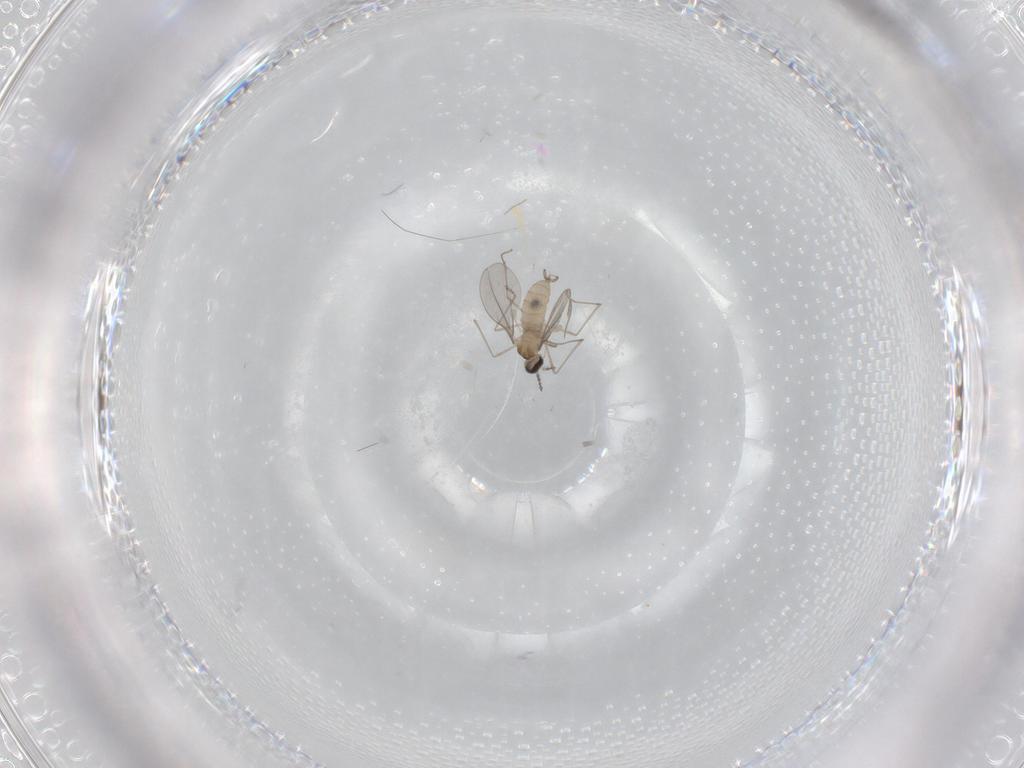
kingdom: Animalia
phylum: Arthropoda
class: Insecta
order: Diptera
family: Cecidomyiidae
